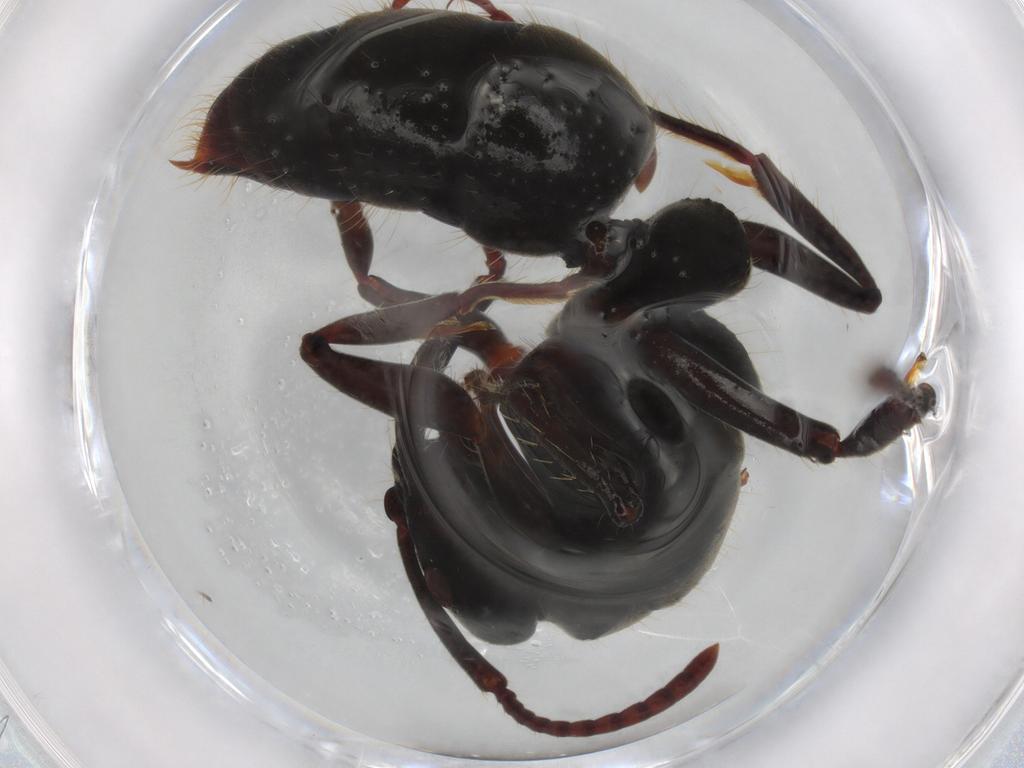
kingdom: Animalia
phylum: Arthropoda
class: Insecta
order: Hymenoptera
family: Formicidae
